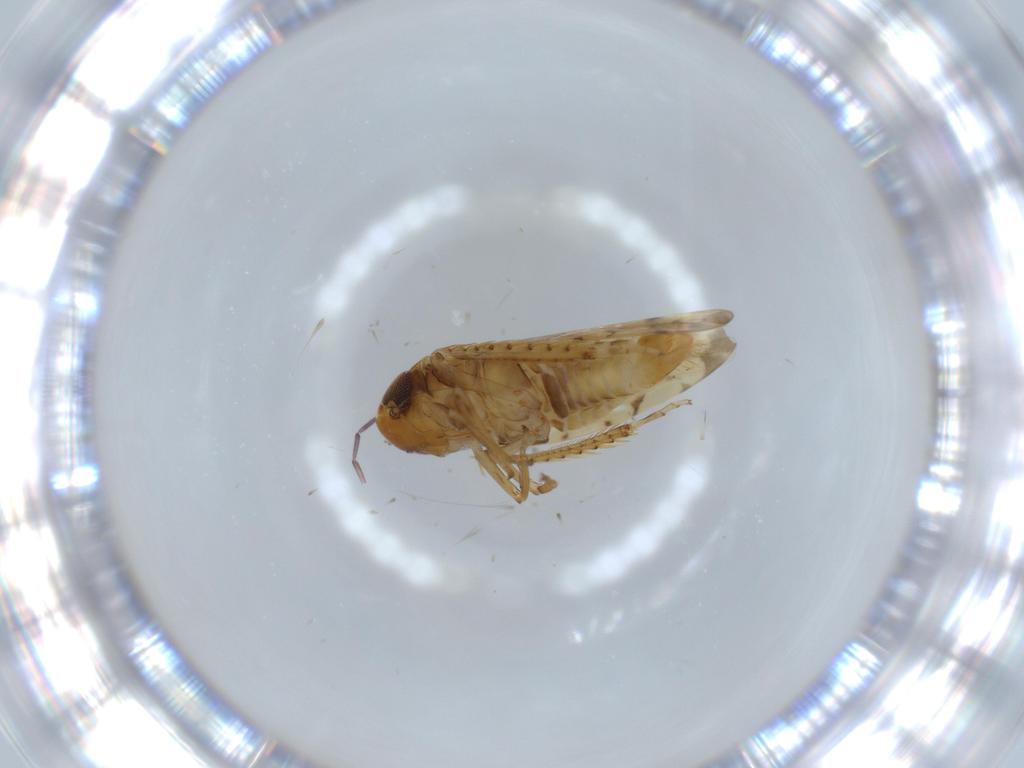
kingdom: Animalia
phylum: Arthropoda
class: Insecta
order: Hemiptera
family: Cicadellidae
